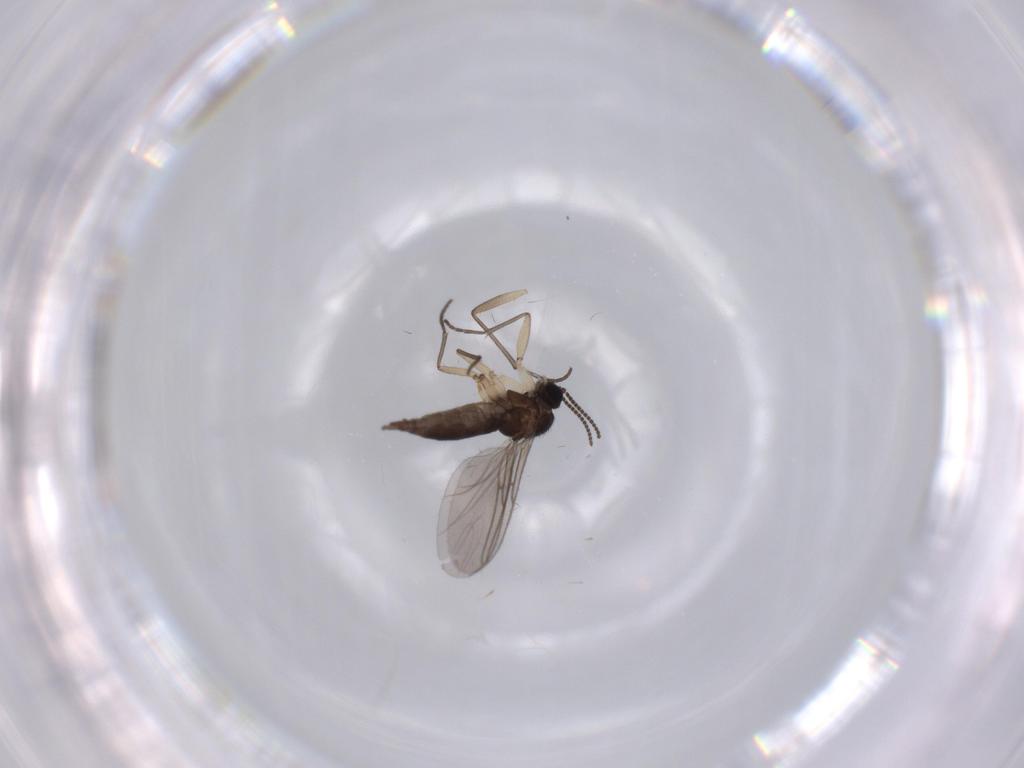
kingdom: Animalia
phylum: Arthropoda
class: Insecta
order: Diptera
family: Sciaridae
